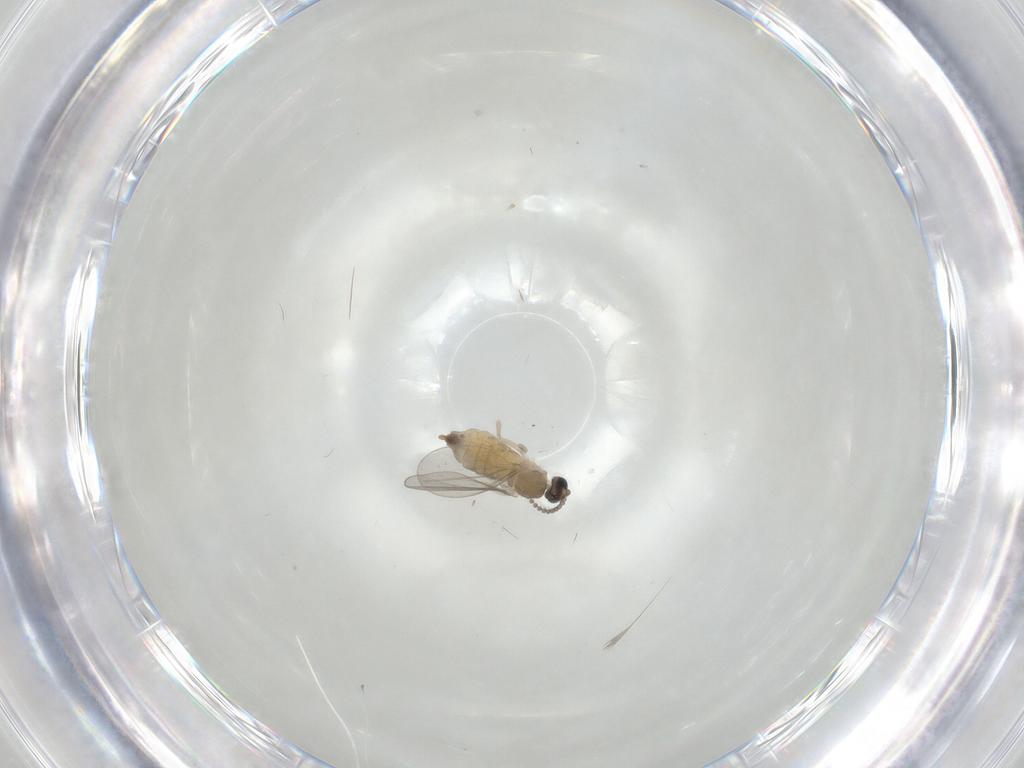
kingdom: Animalia
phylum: Arthropoda
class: Insecta
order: Diptera
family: Cecidomyiidae
